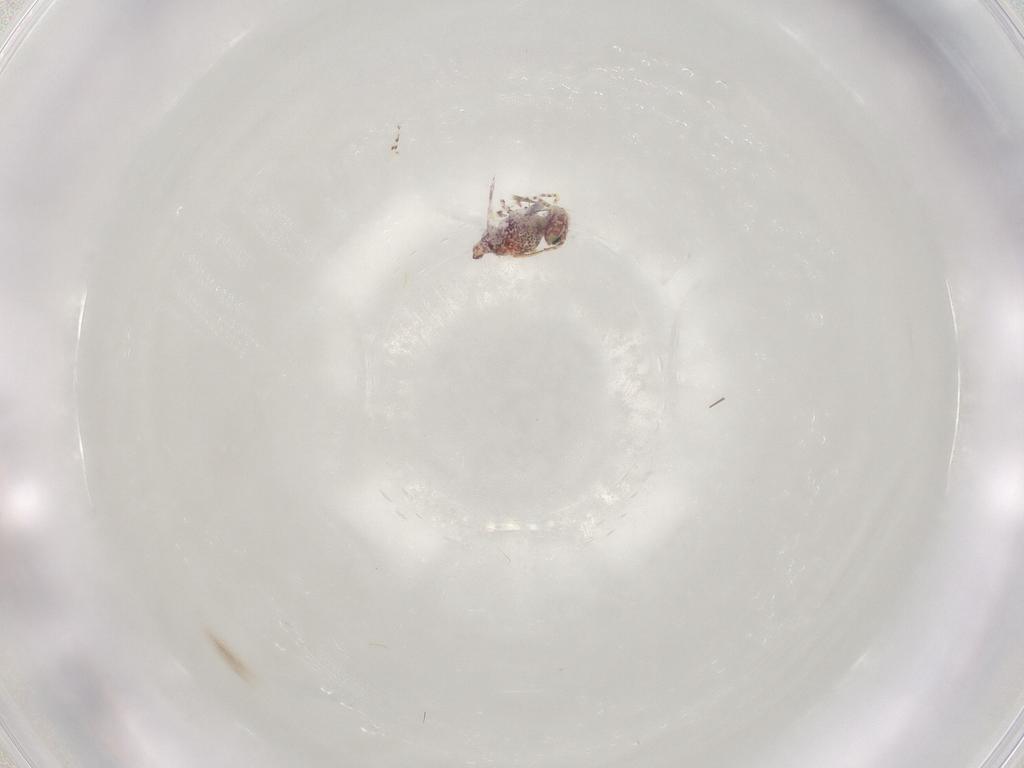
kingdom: Animalia
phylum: Arthropoda
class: Collembola
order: Symphypleona
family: Bourletiellidae
